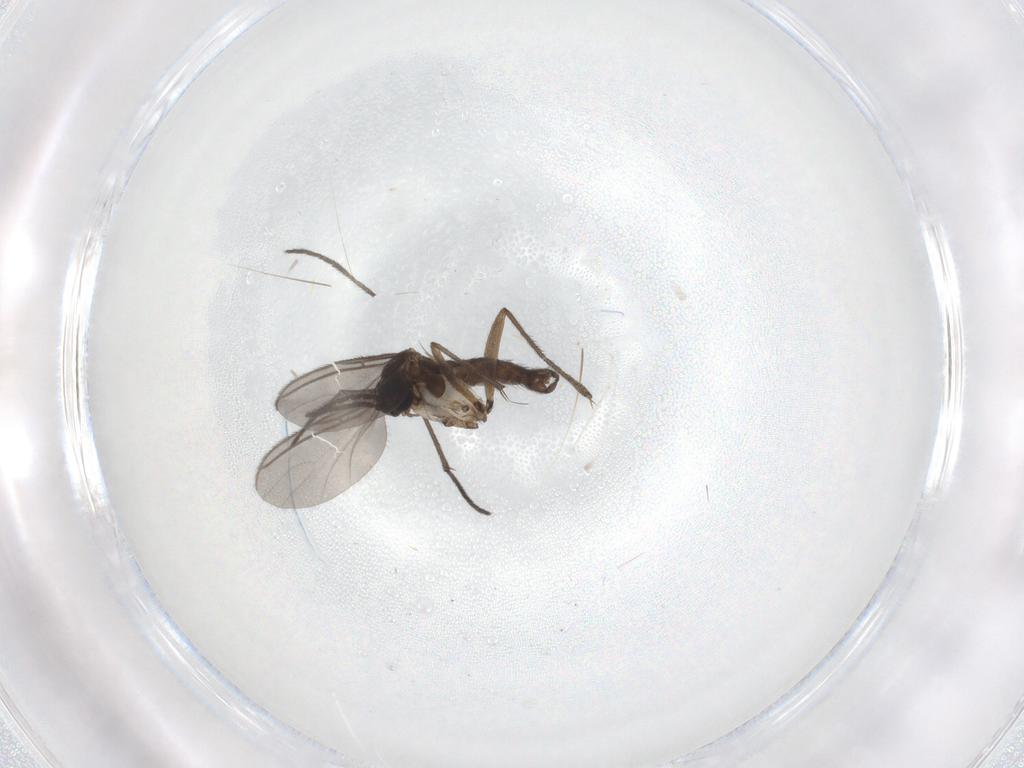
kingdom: Animalia
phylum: Arthropoda
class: Insecta
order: Diptera
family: Sciaridae
